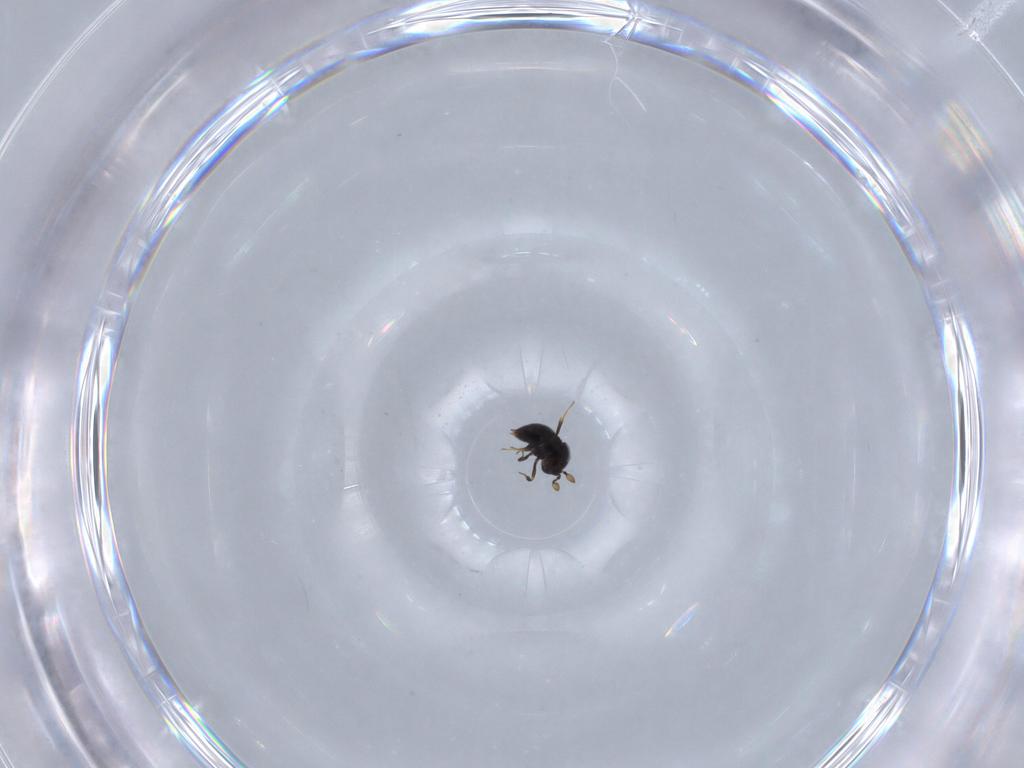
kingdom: Animalia
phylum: Arthropoda
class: Insecta
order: Hymenoptera
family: Scelionidae
